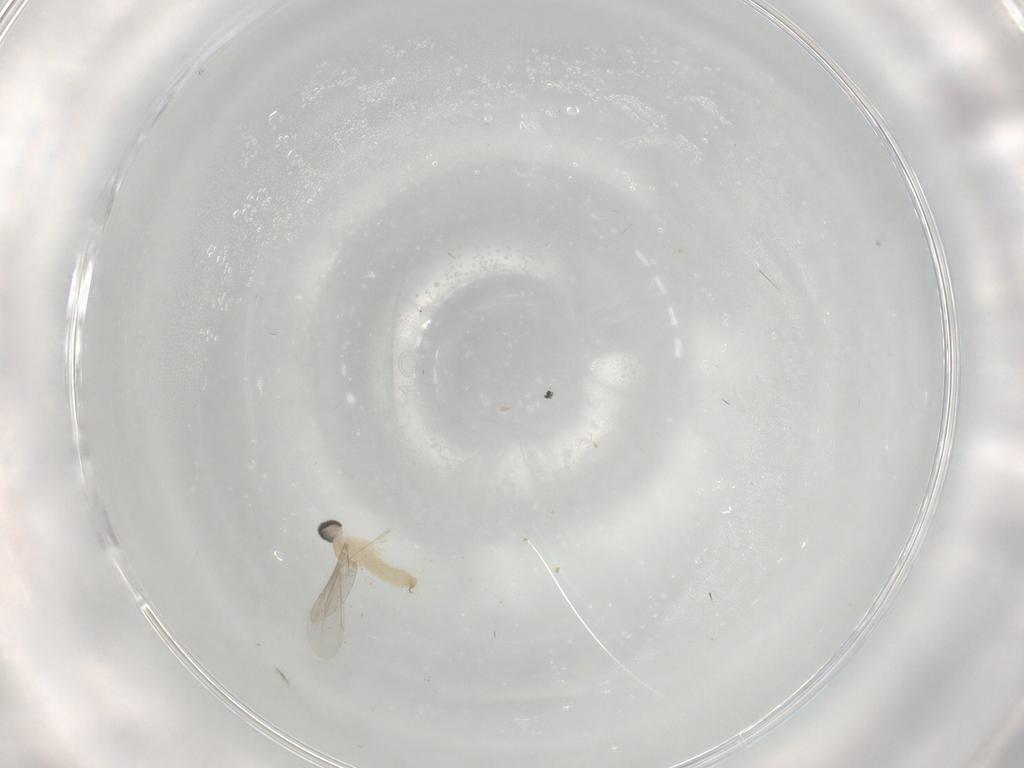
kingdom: Animalia
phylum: Arthropoda
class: Insecta
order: Diptera
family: Cecidomyiidae
